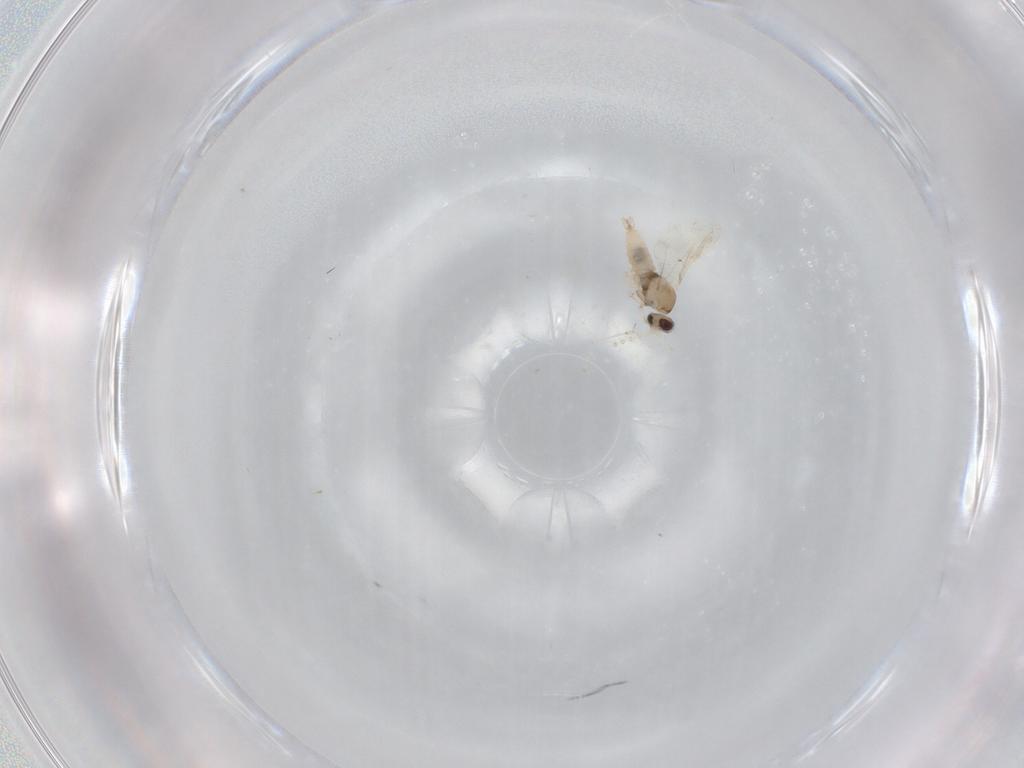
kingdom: Animalia
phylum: Arthropoda
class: Insecta
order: Diptera
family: Cecidomyiidae
